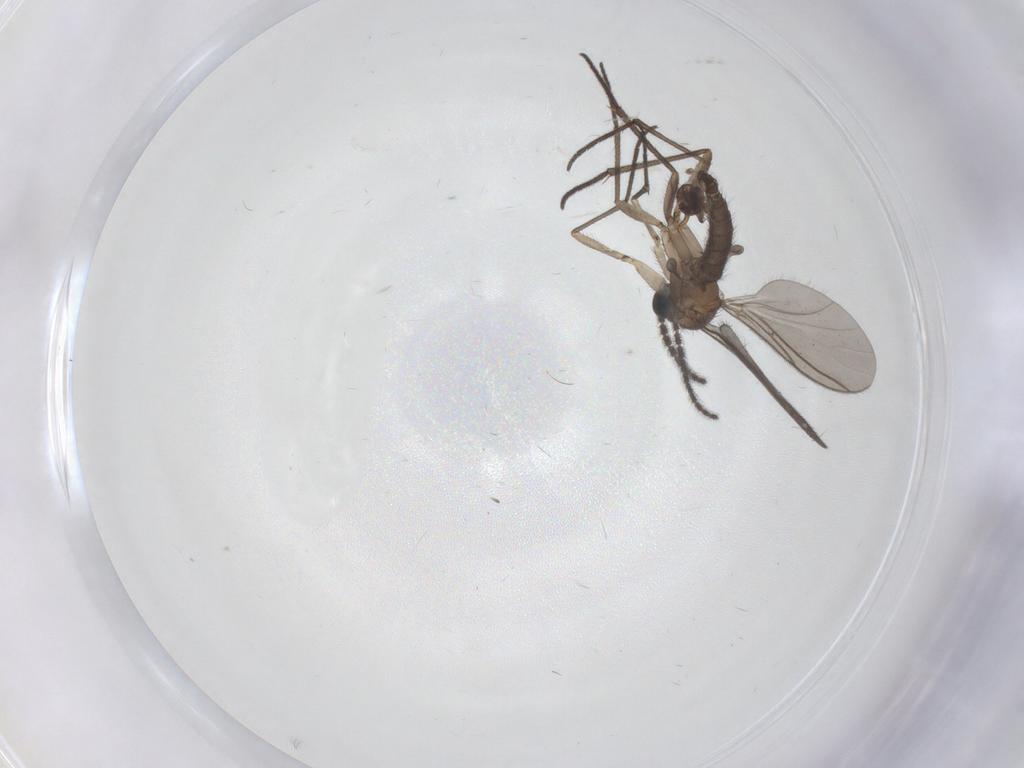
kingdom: Animalia
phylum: Arthropoda
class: Insecta
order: Diptera
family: Sciaridae
